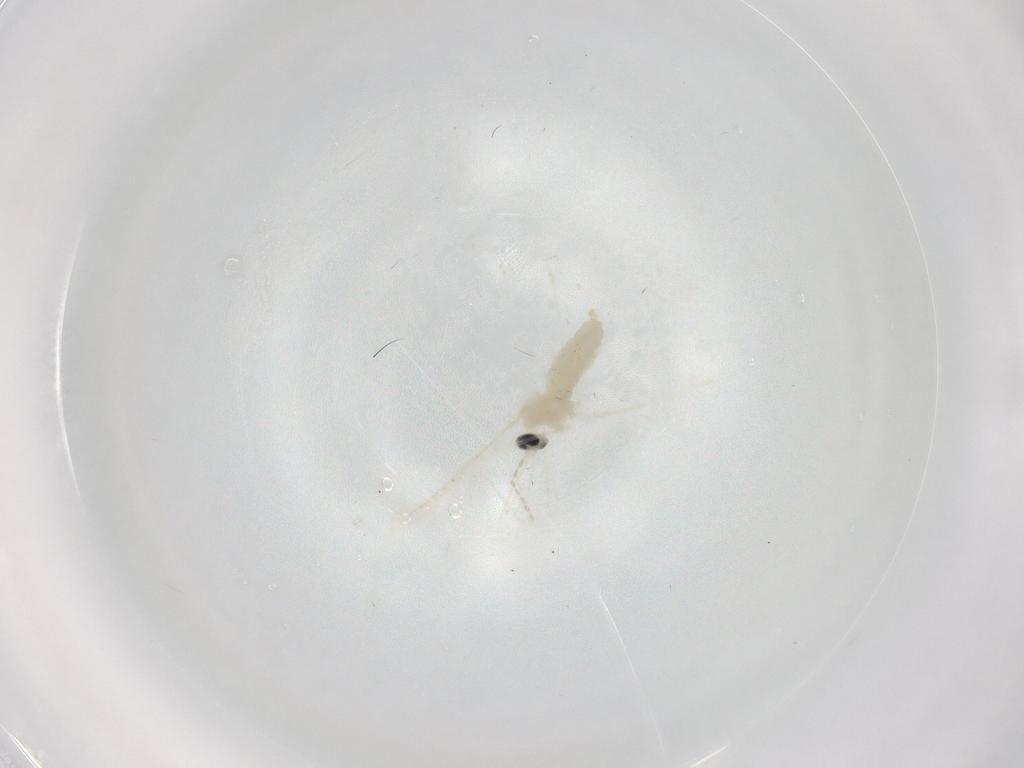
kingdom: Animalia
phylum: Arthropoda
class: Insecta
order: Diptera
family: Cecidomyiidae
